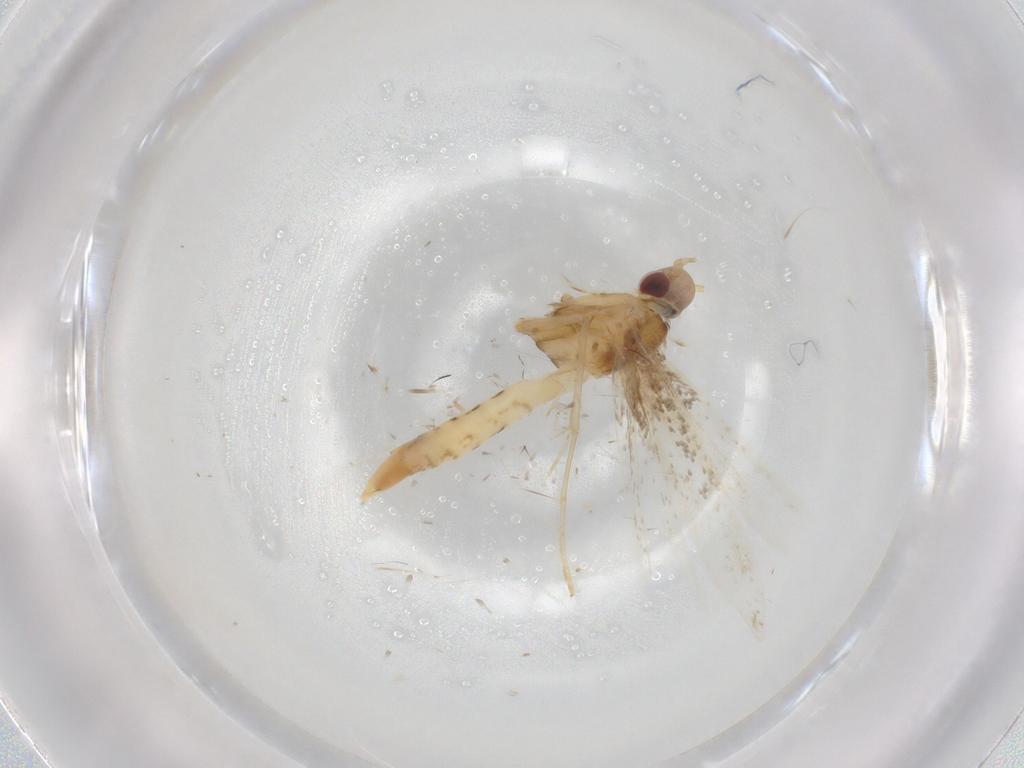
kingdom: Animalia
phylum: Arthropoda
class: Insecta
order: Lepidoptera
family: Gracillariidae
